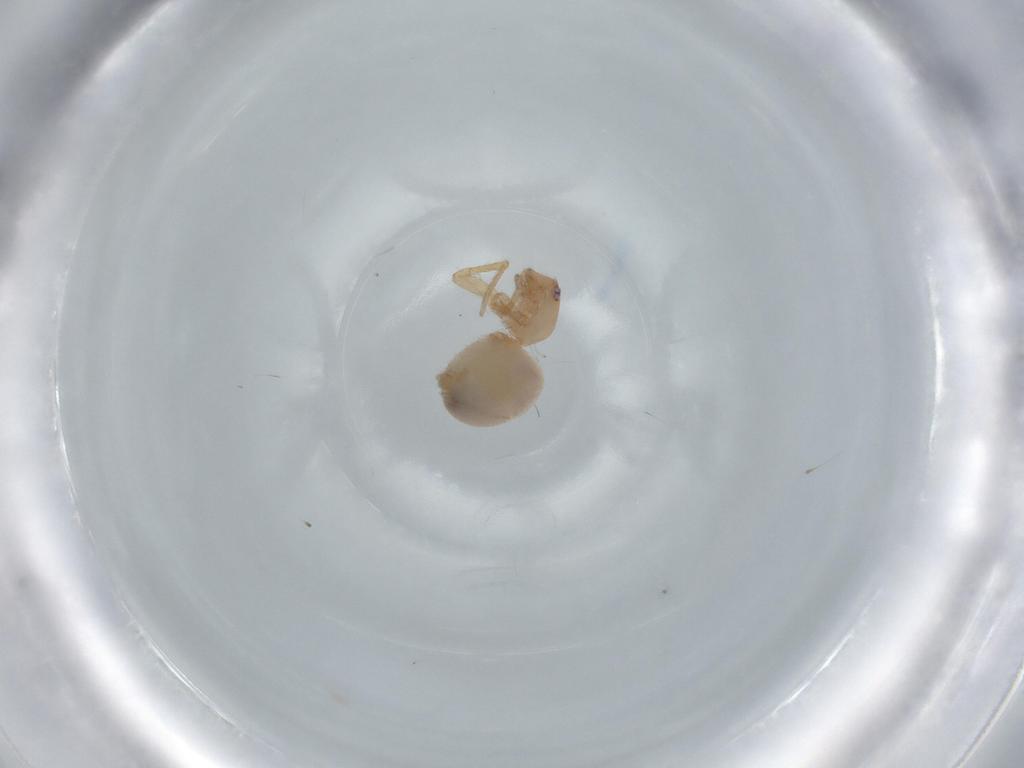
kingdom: Animalia
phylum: Arthropoda
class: Arachnida
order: Araneae
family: Oonopidae
